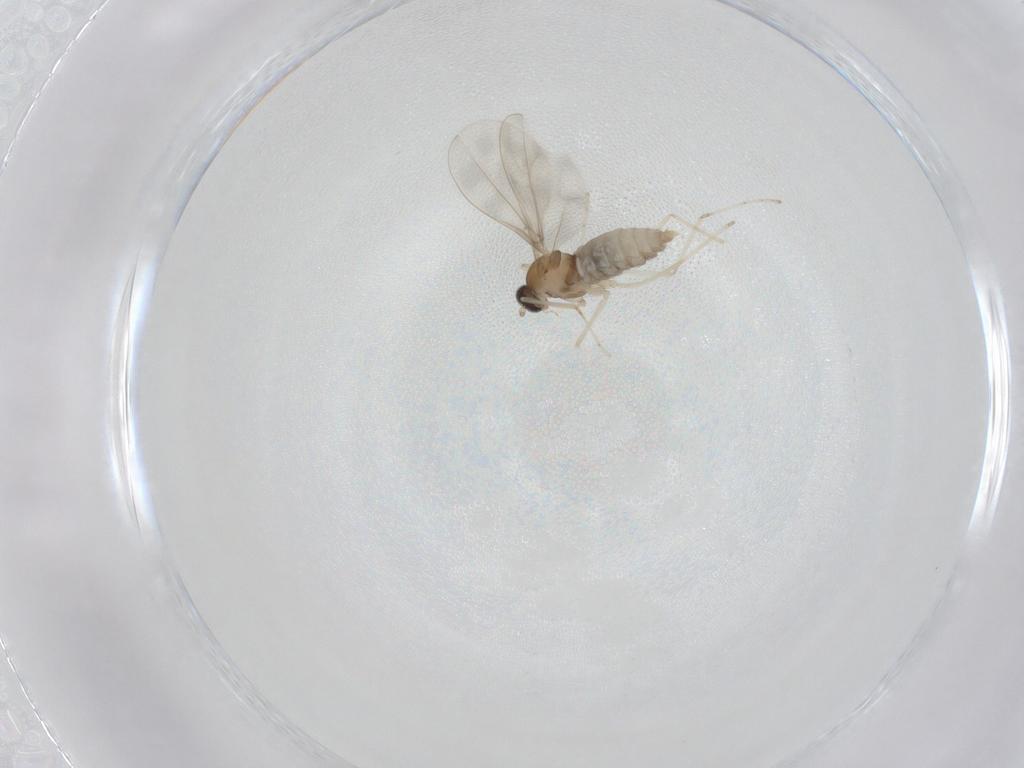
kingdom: Animalia
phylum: Arthropoda
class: Insecta
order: Diptera
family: Cecidomyiidae
